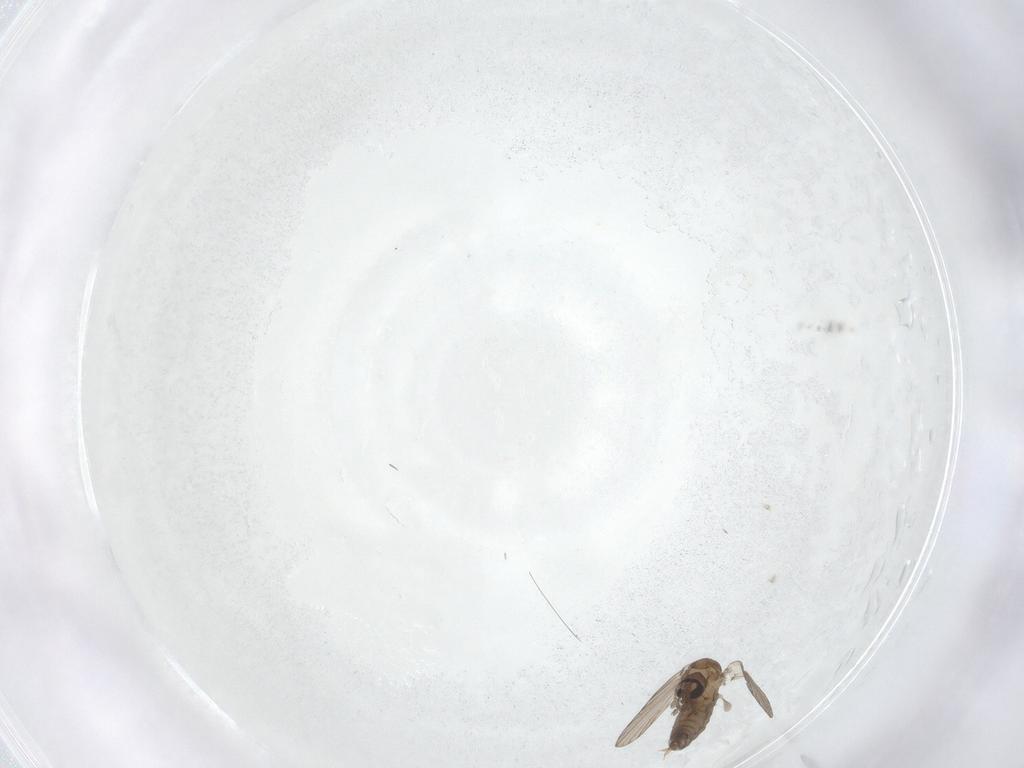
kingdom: Animalia
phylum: Arthropoda
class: Insecta
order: Diptera
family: Psychodidae
